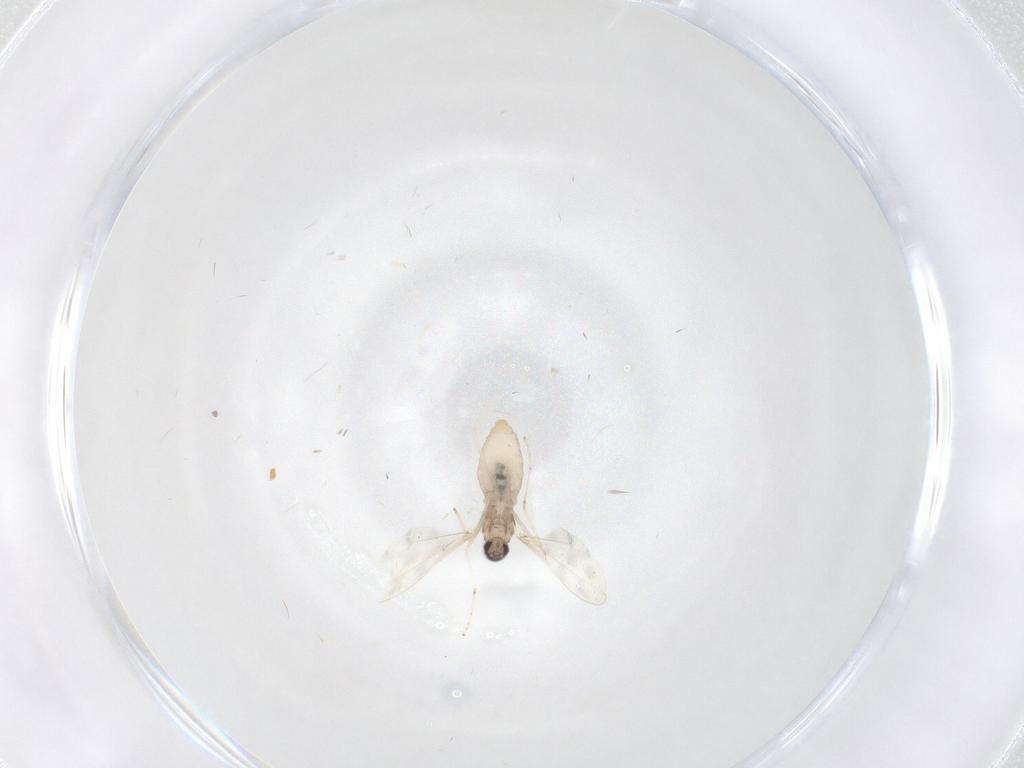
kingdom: Animalia
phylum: Arthropoda
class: Insecta
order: Diptera
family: Cecidomyiidae
